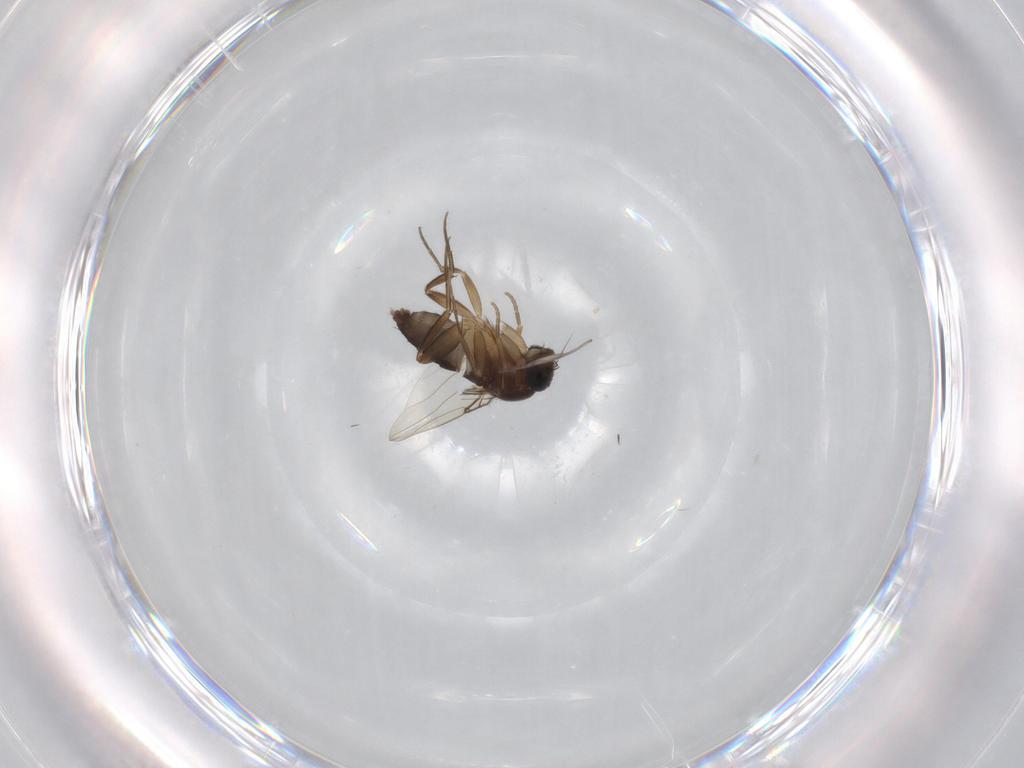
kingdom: Animalia
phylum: Arthropoda
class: Insecta
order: Diptera
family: Phoridae
